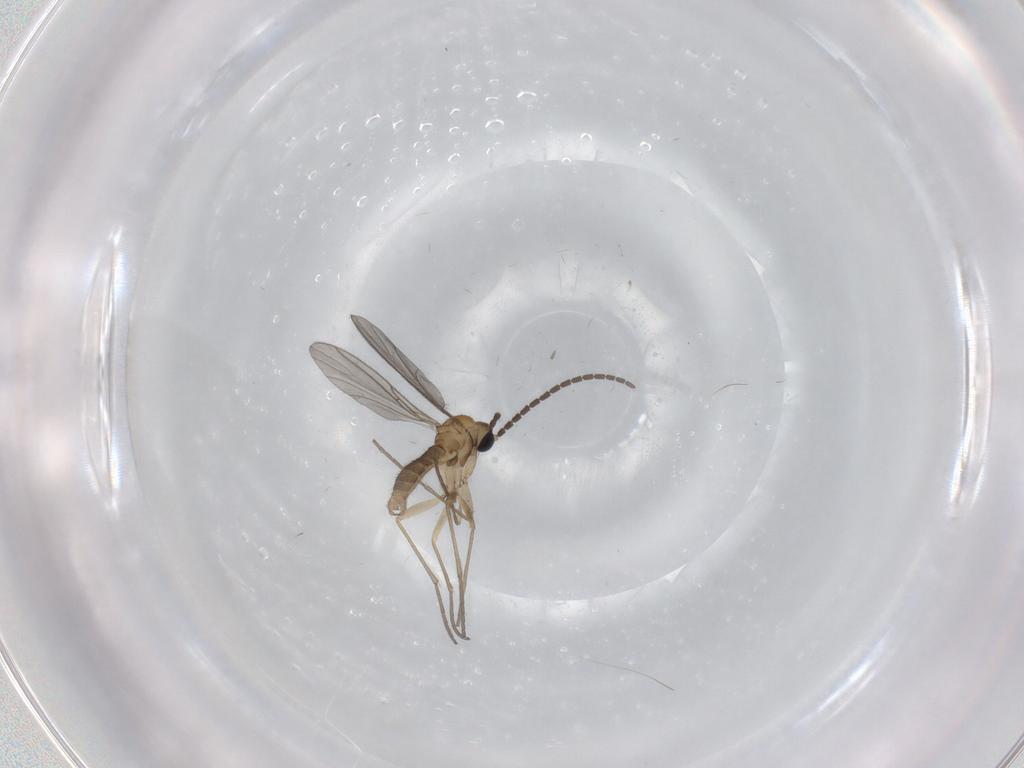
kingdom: Animalia
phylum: Arthropoda
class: Insecta
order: Diptera
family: Sciaridae
